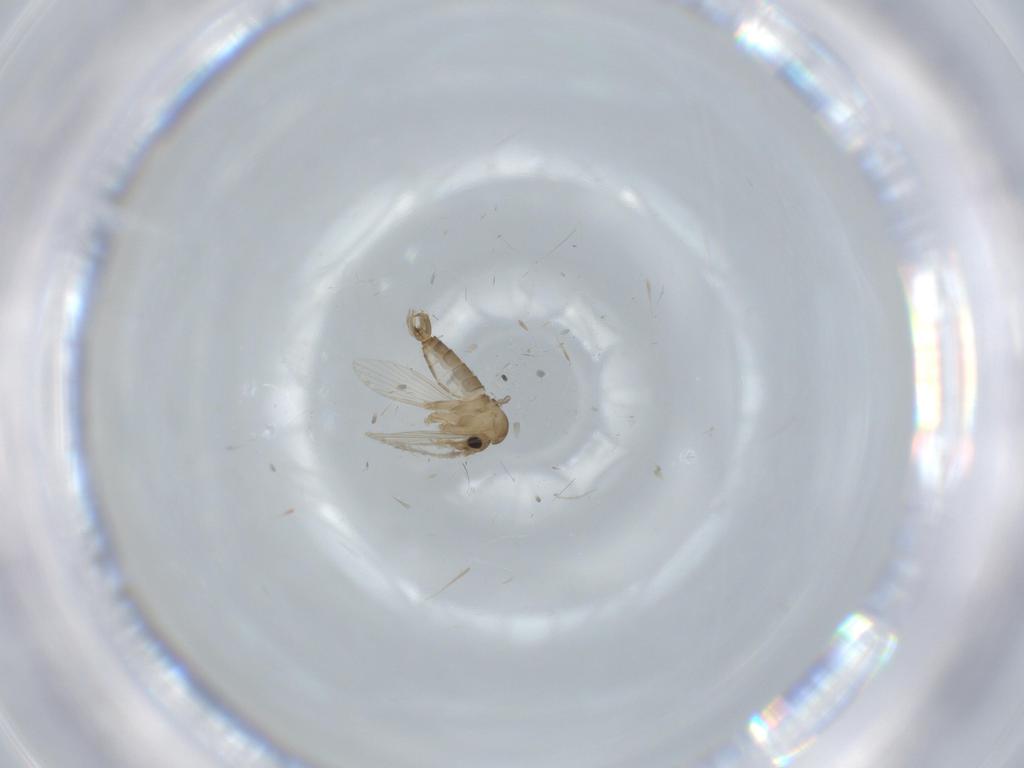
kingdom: Animalia
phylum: Arthropoda
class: Insecta
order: Diptera
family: Psychodidae
